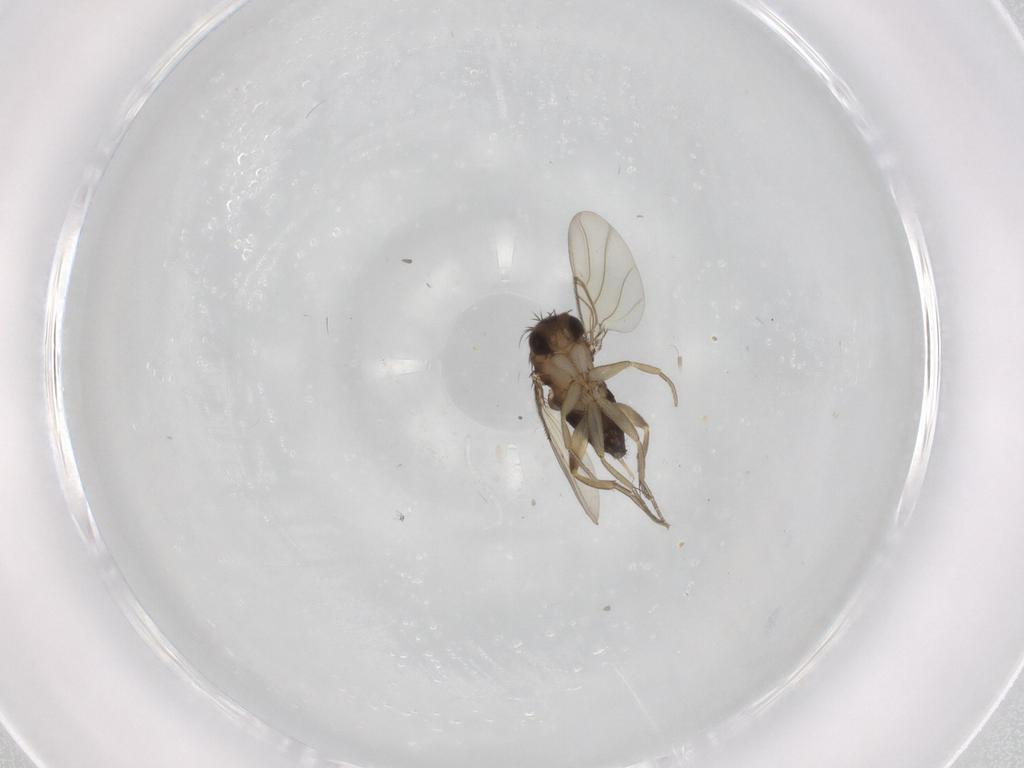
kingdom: Animalia
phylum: Arthropoda
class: Insecta
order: Diptera
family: Phoridae
